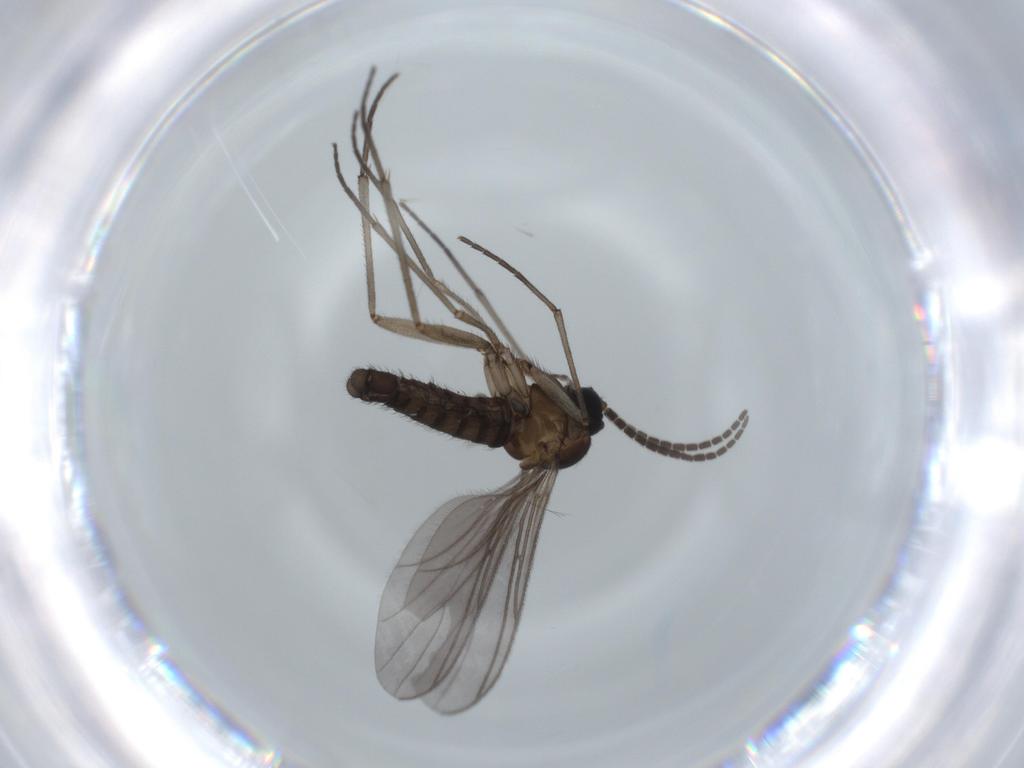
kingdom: Animalia
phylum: Arthropoda
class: Insecta
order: Diptera
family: Sciaridae
